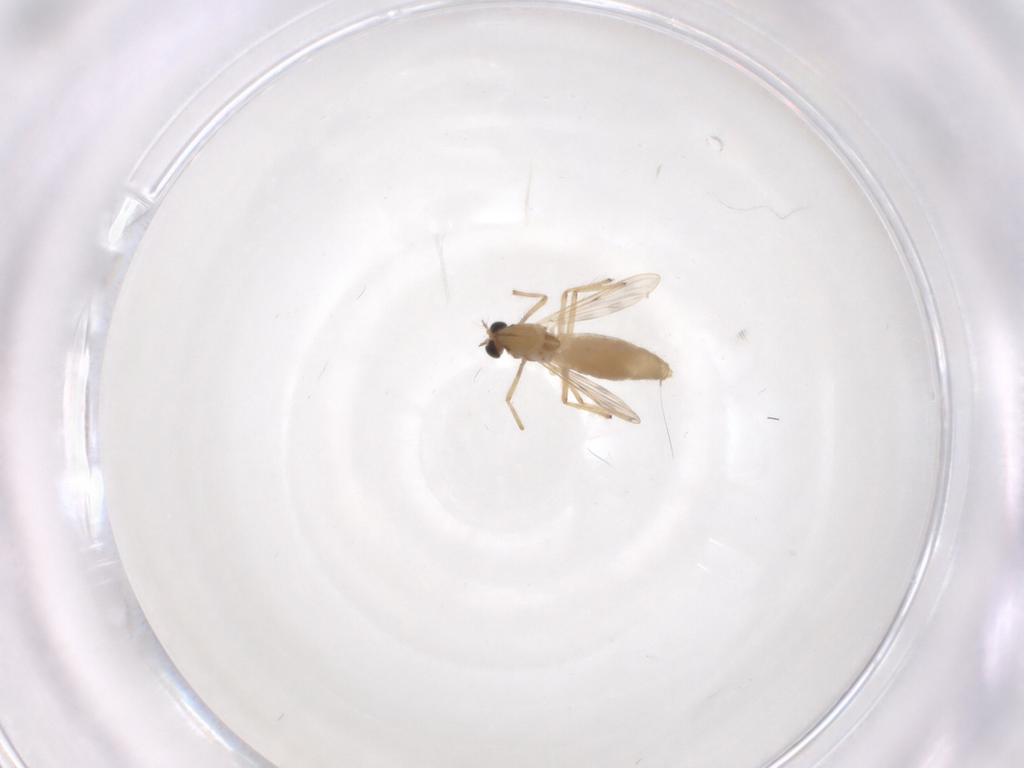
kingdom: Animalia
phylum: Arthropoda
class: Insecta
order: Diptera
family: Chironomidae
